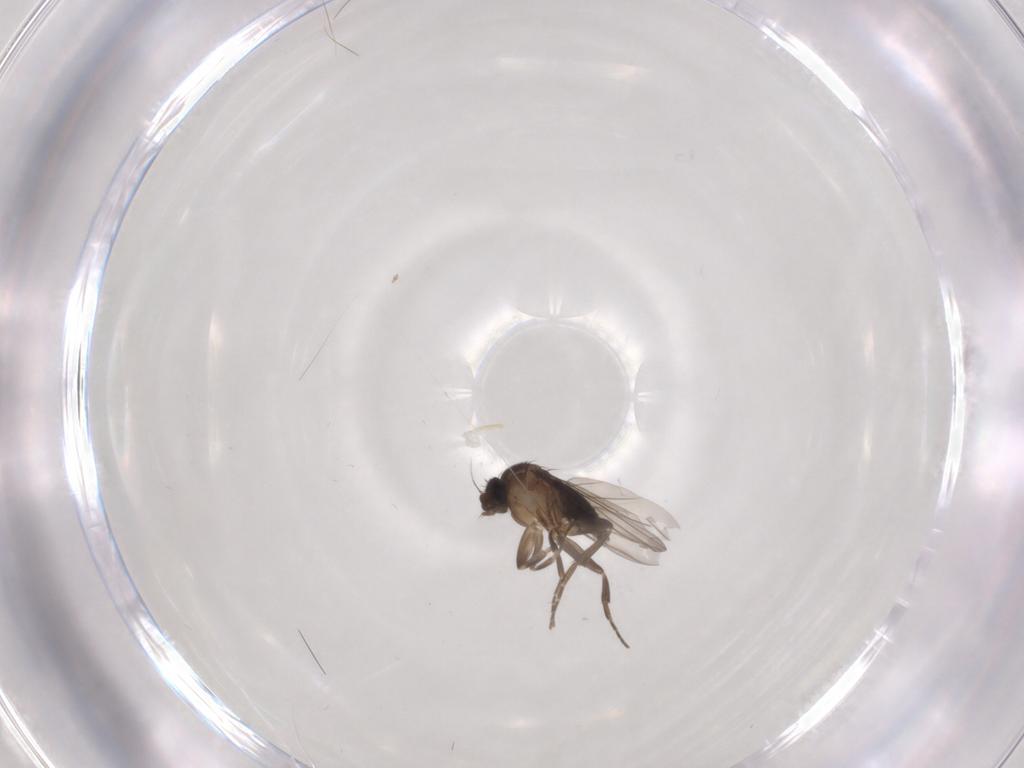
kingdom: Animalia
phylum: Arthropoda
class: Insecta
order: Diptera
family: Cecidomyiidae
